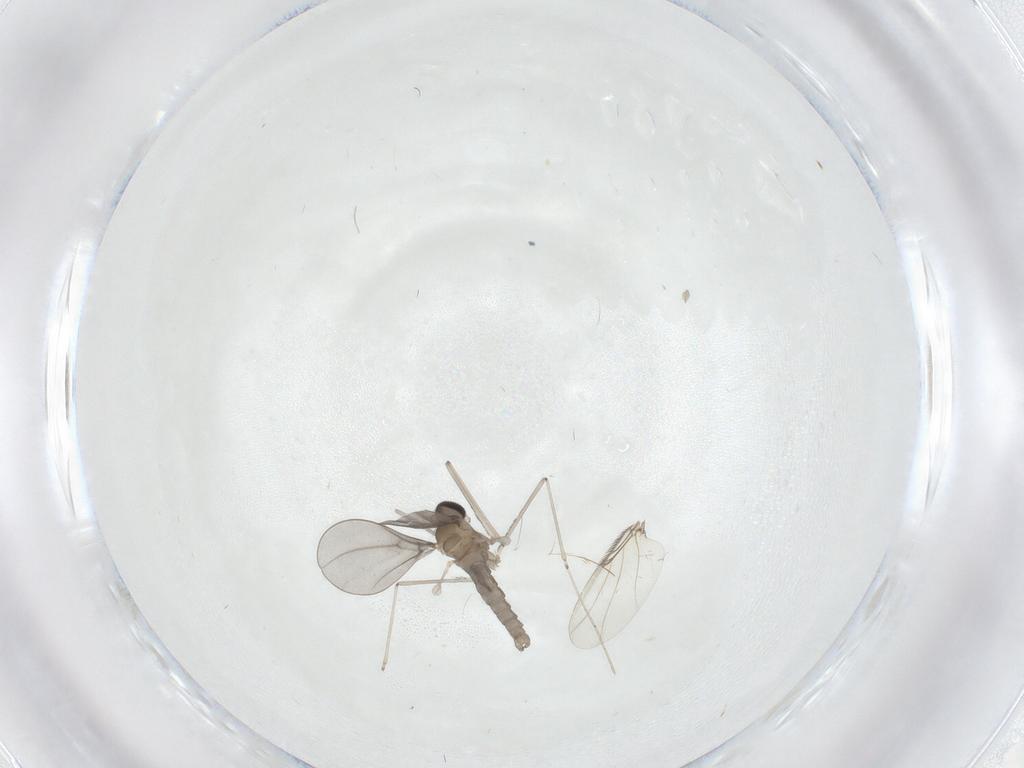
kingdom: Animalia
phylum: Arthropoda
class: Insecta
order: Diptera
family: Cecidomyiidae
